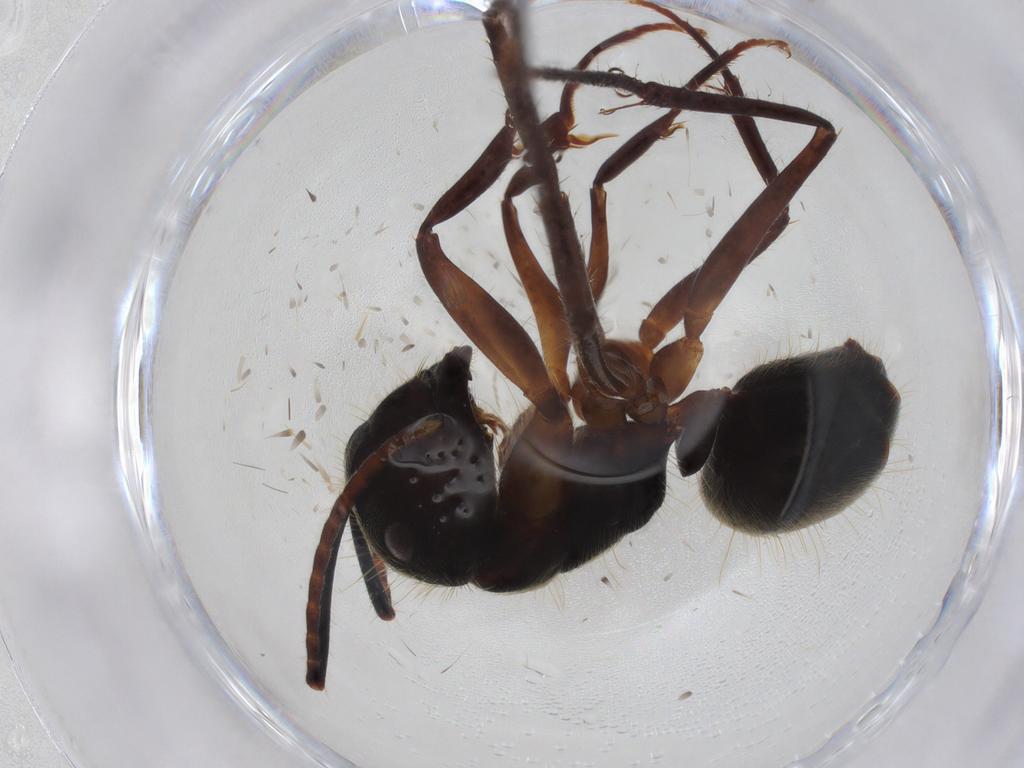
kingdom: Animalia
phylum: Arthropoda
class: Insecta
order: Hymenoptera
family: Formicidae
